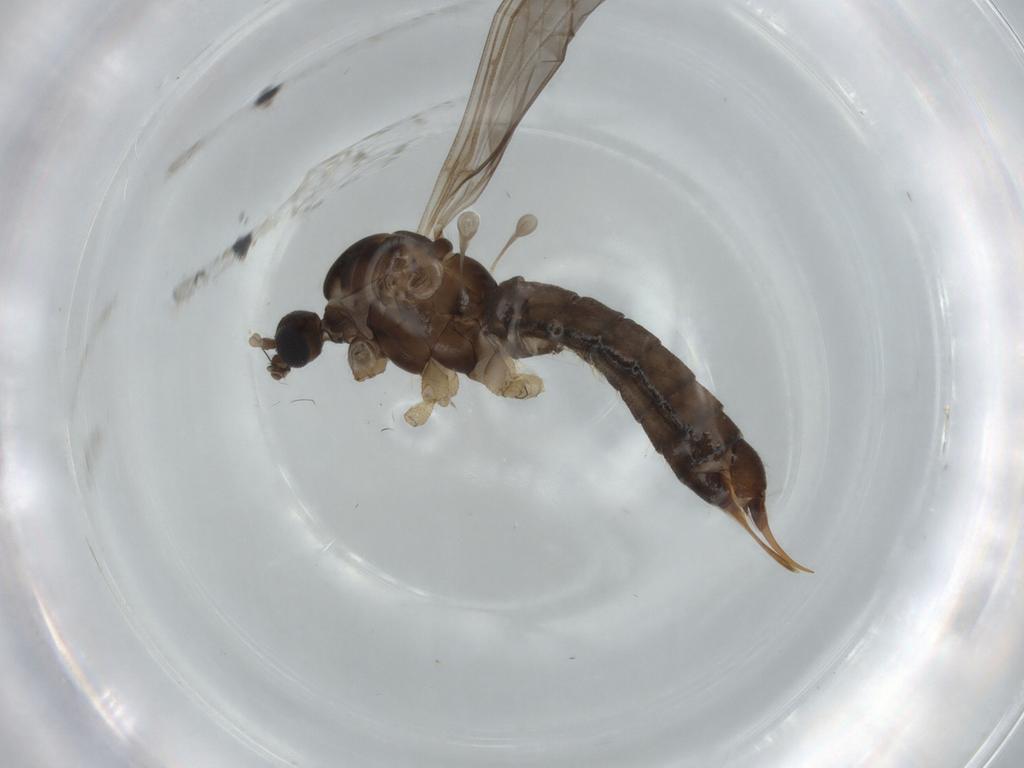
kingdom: Animalia
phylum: Arthropoda
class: Insecta
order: Diptera
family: Limoniidae
